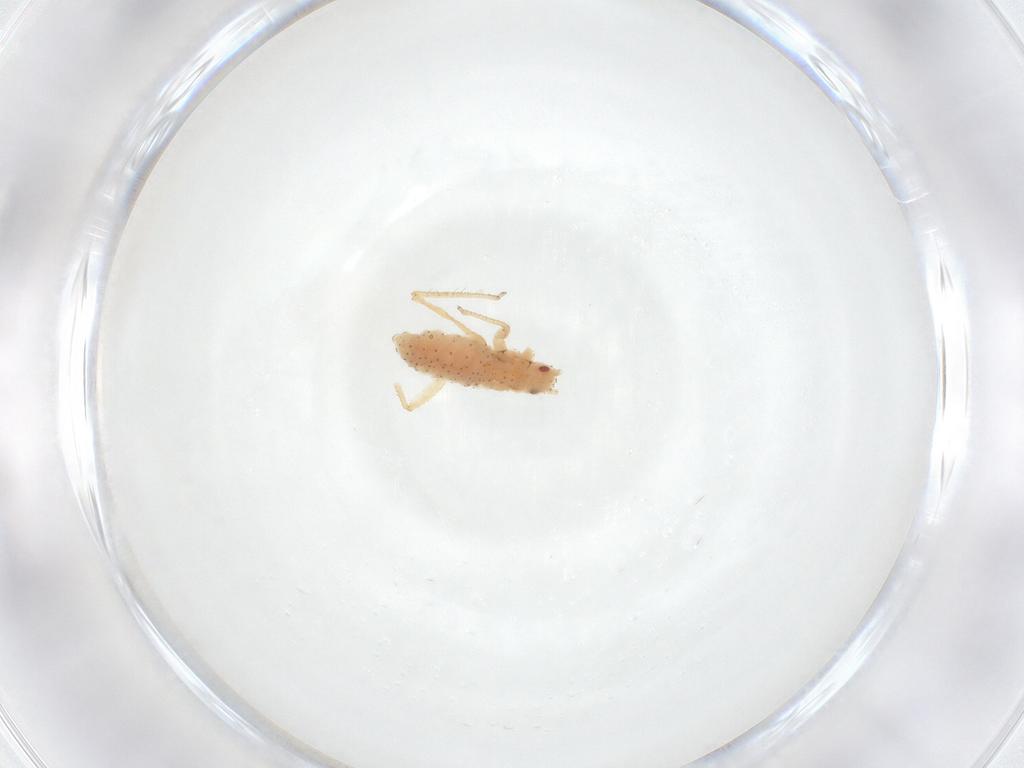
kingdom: Animalia
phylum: Arthropoda
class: Insecta
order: Hemiptera
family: Aphididae
